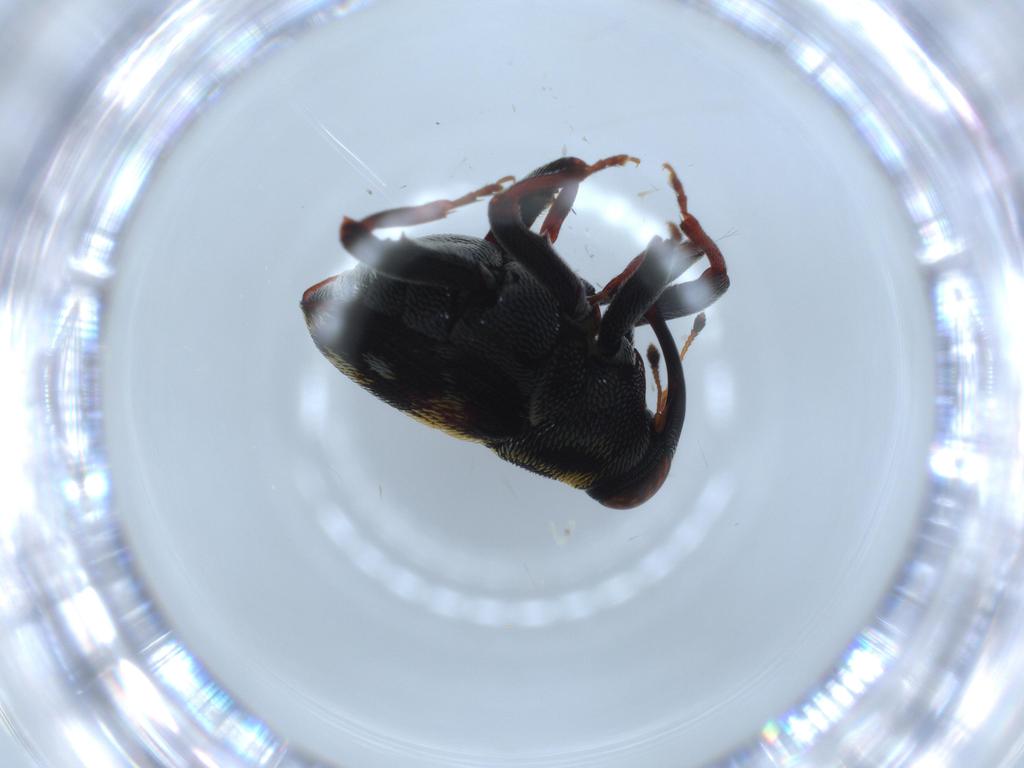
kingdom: Animalia
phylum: Arthropoda
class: Insecta
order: Coleoptera
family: Curculionidae
